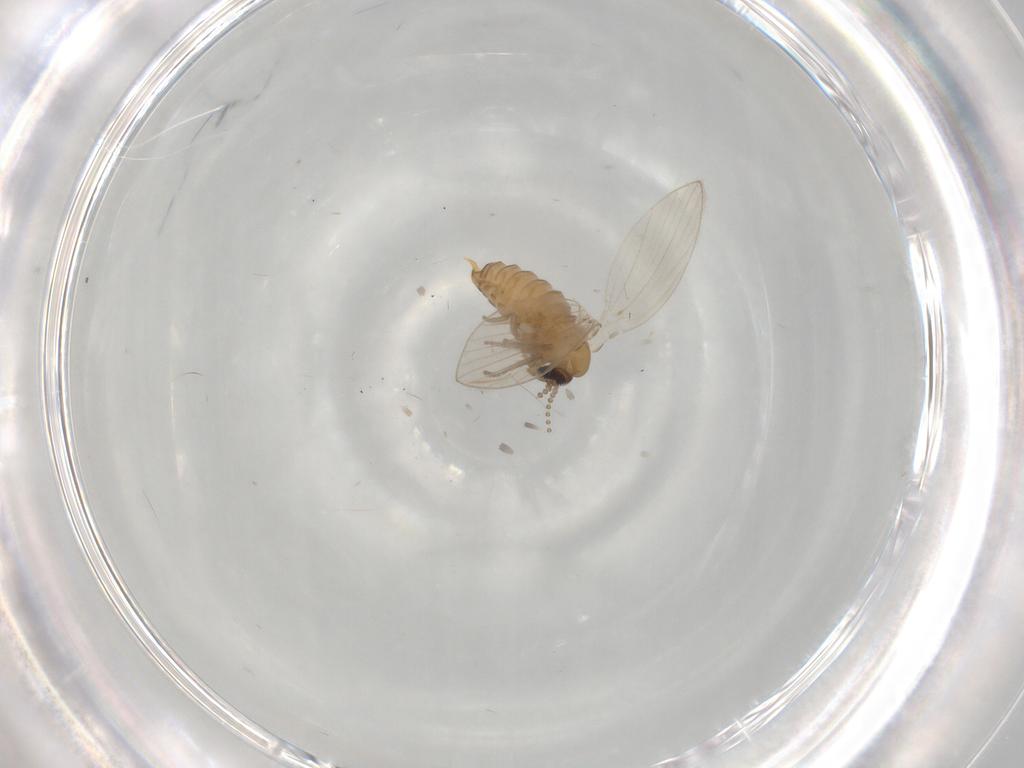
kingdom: Animalia
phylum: Arthropoda
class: Insecta
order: Diptera
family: Psychodidae
